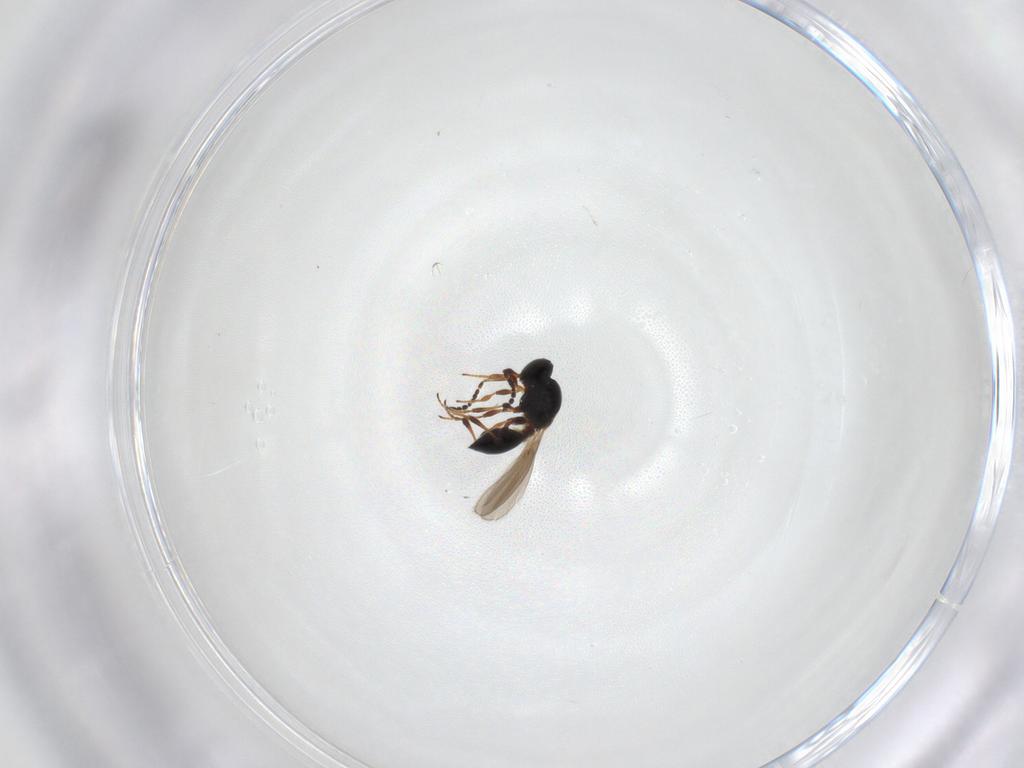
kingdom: Animalia
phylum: Arthropoda
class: Insecta
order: Hymenoptera
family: Platygastridae
